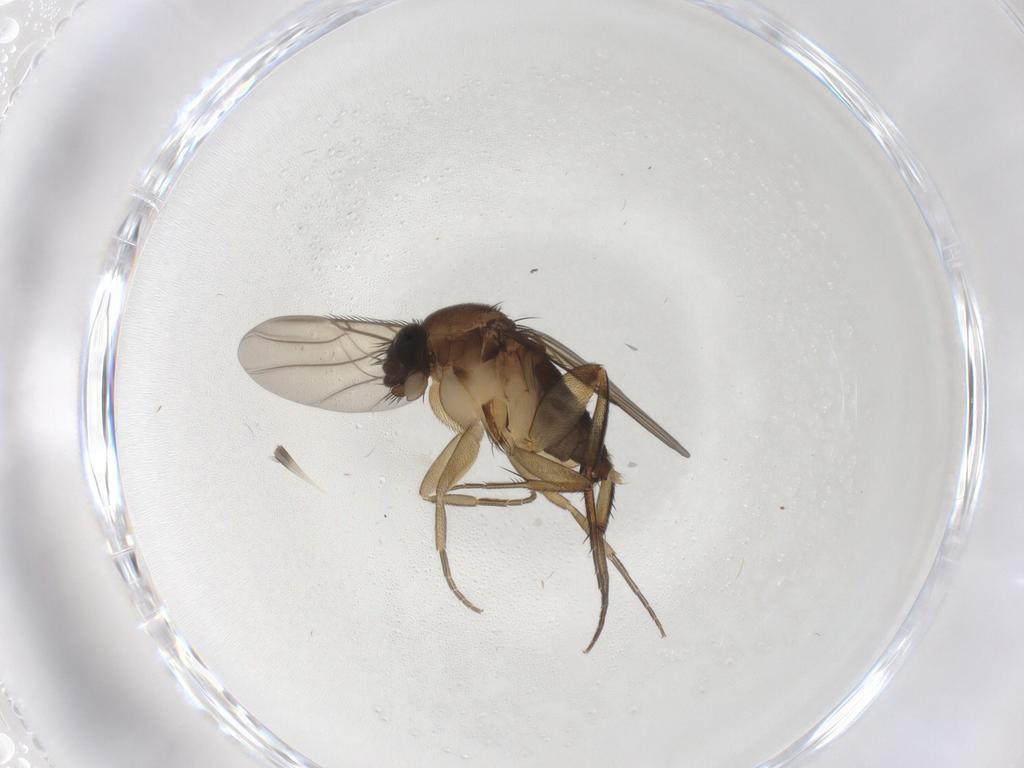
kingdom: Animalia
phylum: Arthropoda
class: Insecta
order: Diptera
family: Phoridae
